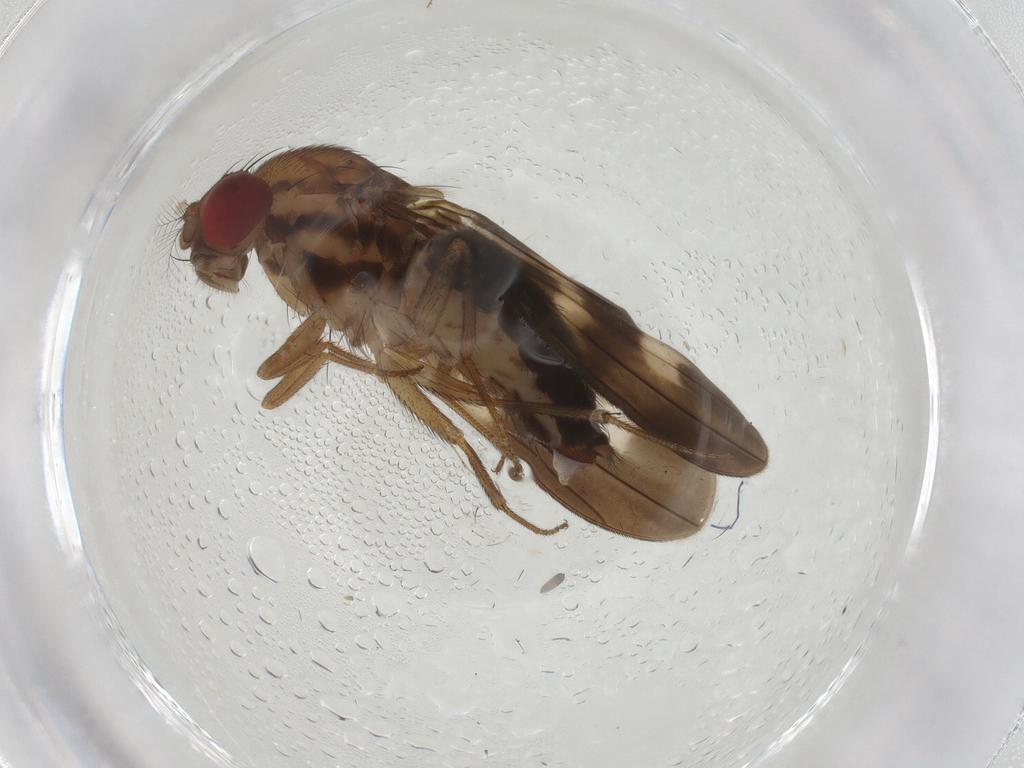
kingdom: Animalia
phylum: Arthropoda
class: Insecta
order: Diptera
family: Drosophilidae
